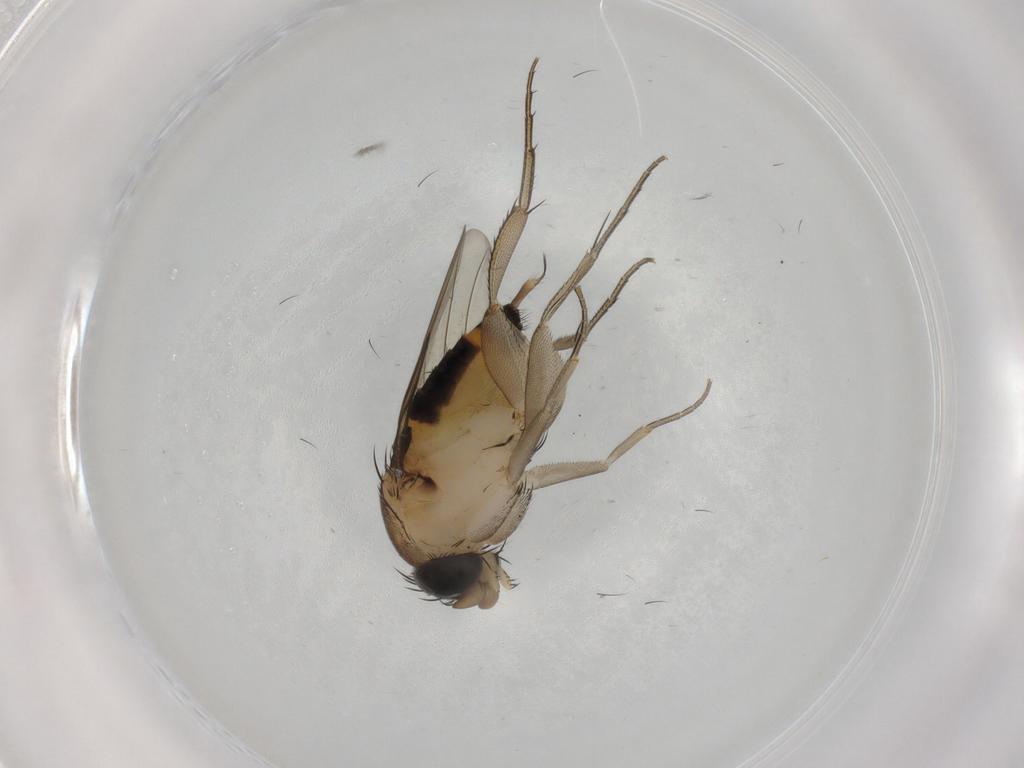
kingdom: Animalia
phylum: Arthropoda
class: Insecta
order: Diptera
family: Phoridae
